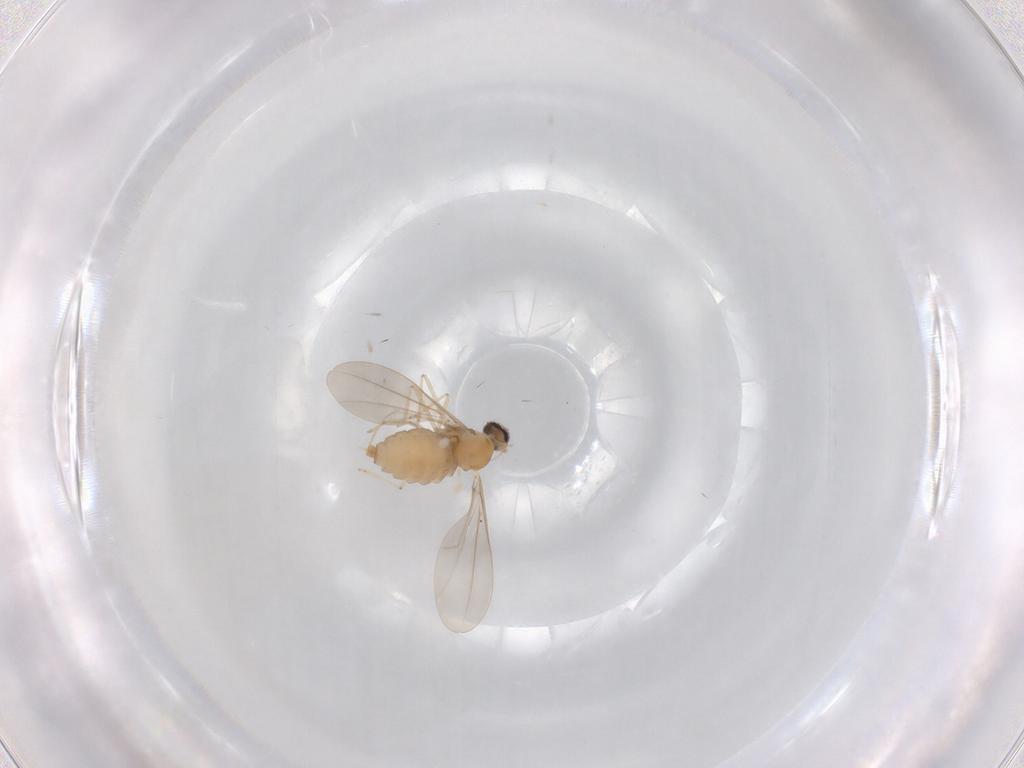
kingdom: Animalia
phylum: Arthropoda
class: Insecta
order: Diptera
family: Cecidomyiidae
